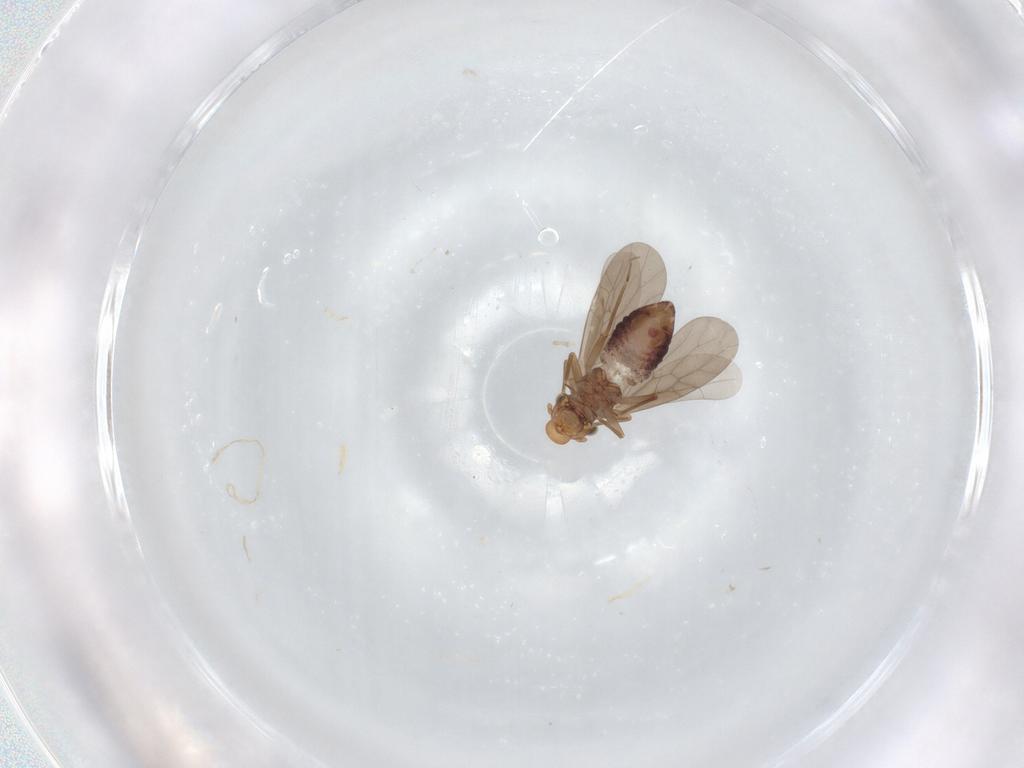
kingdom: Animalia
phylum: Arthropoda
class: Insecta
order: Psocodea
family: Lepidopsocidae
